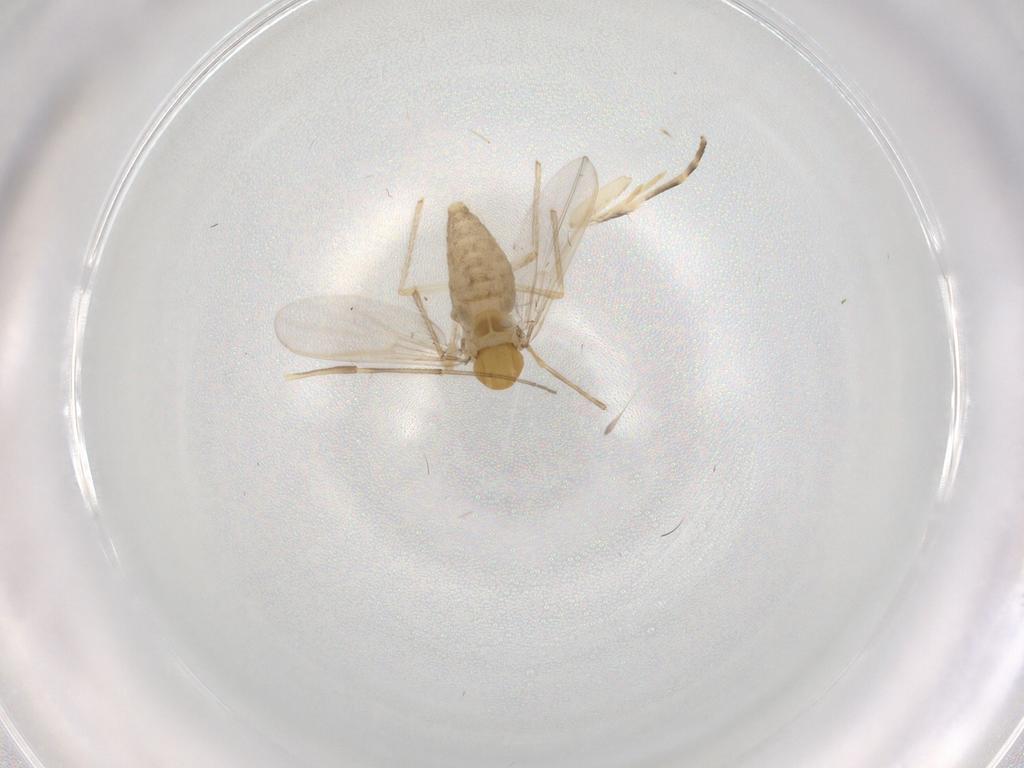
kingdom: Animalia
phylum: Arthropoda
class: Insecta
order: Diptera
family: Chironomidae
